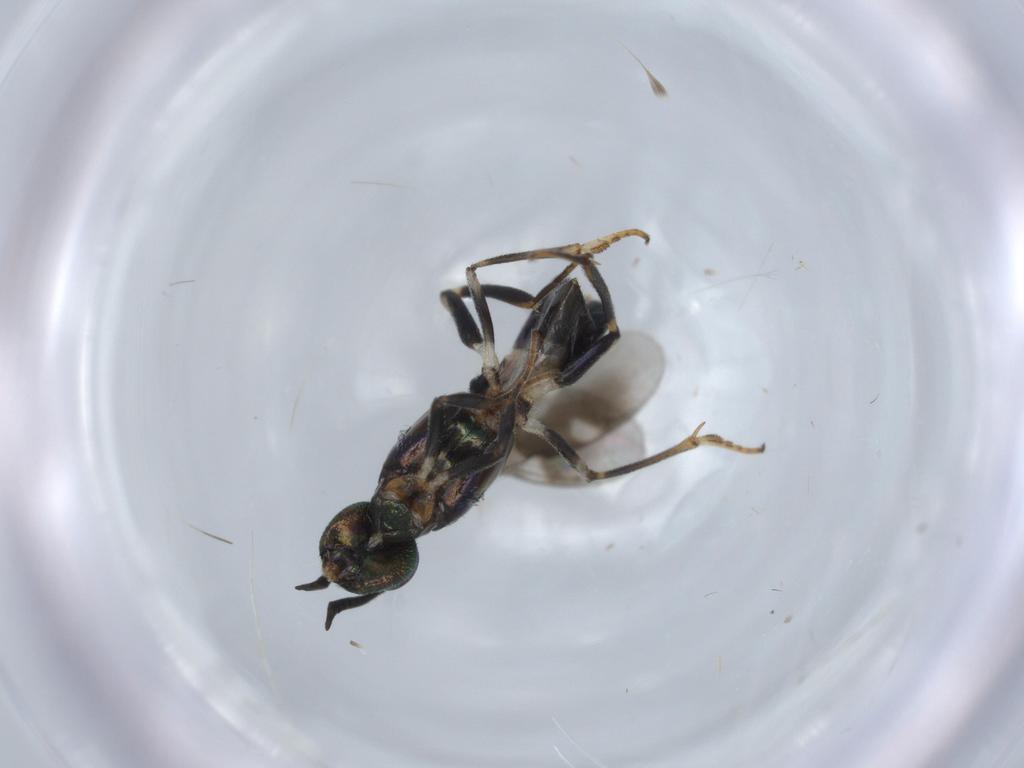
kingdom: Animalia
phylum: Arthropoda
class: Insecta
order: Hymenoptera
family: Eupelmidae
